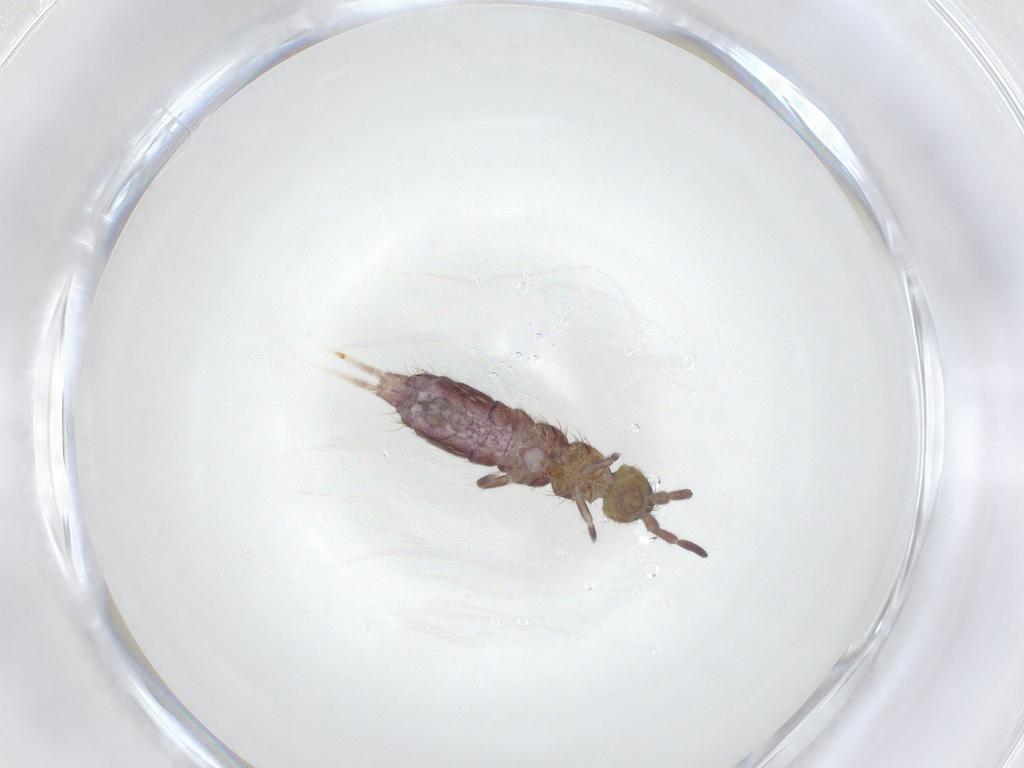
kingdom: Animalia
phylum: Arthropoda
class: Collembola
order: Entomobryomorpha
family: Isotomidae
